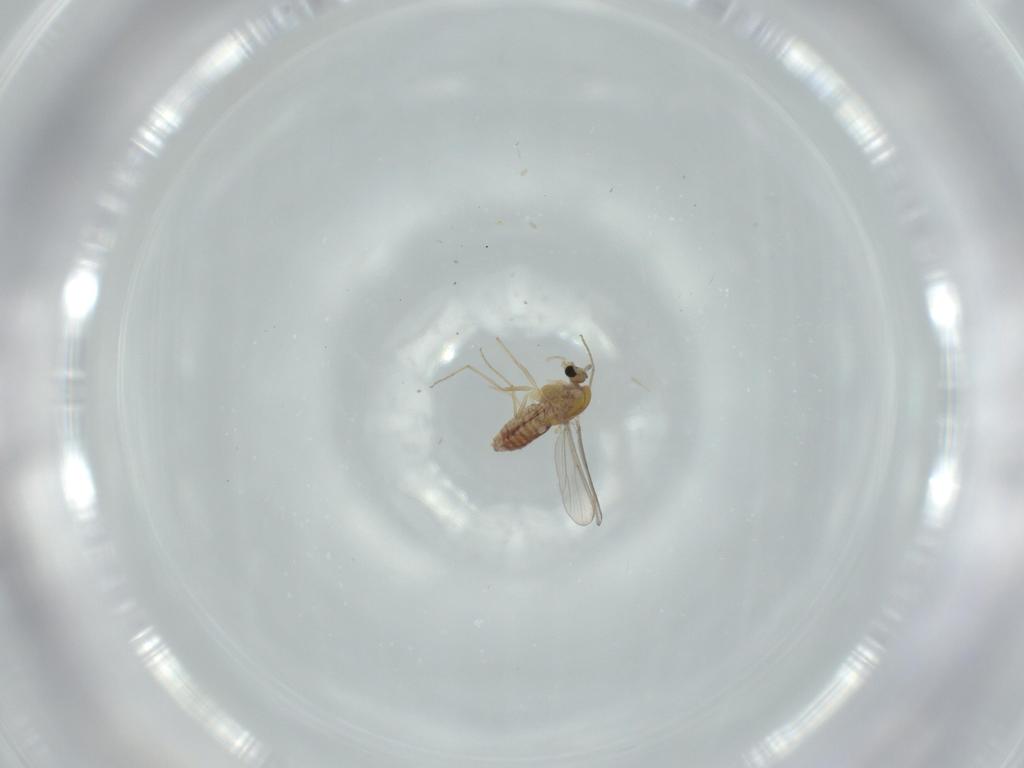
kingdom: Animalia
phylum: Arthropoda
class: Insecta
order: Diptera
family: Chironomidae
